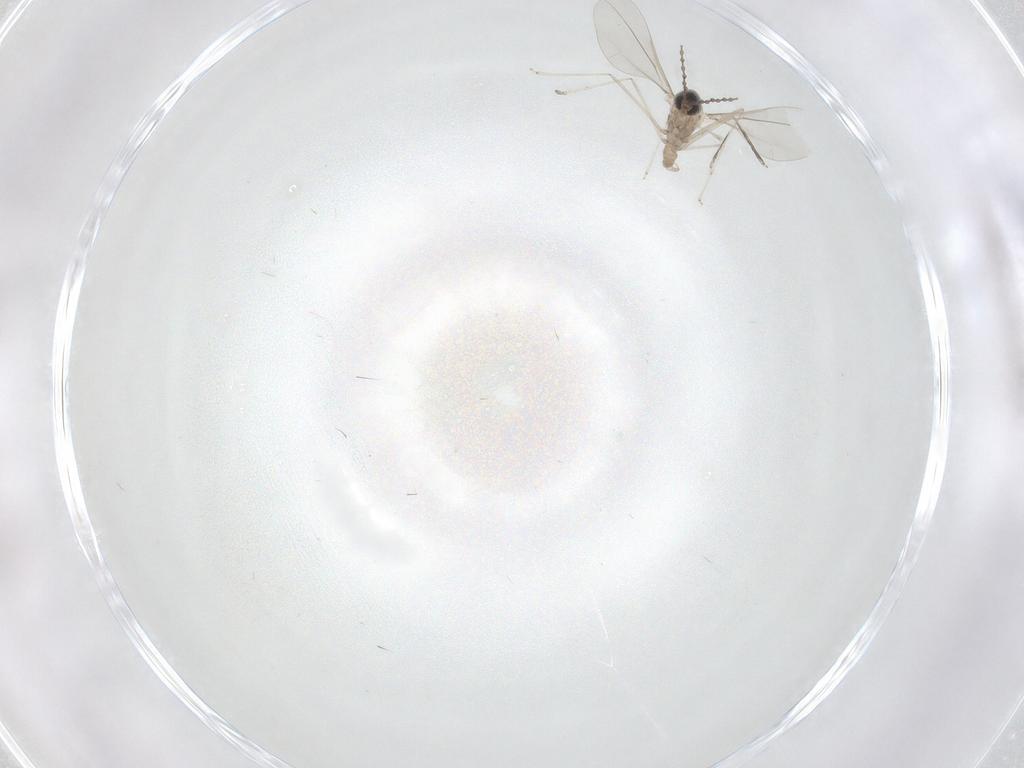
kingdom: Animalia
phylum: Arthropoda
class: Insecta
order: Diptera
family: Cecidomyiidae
